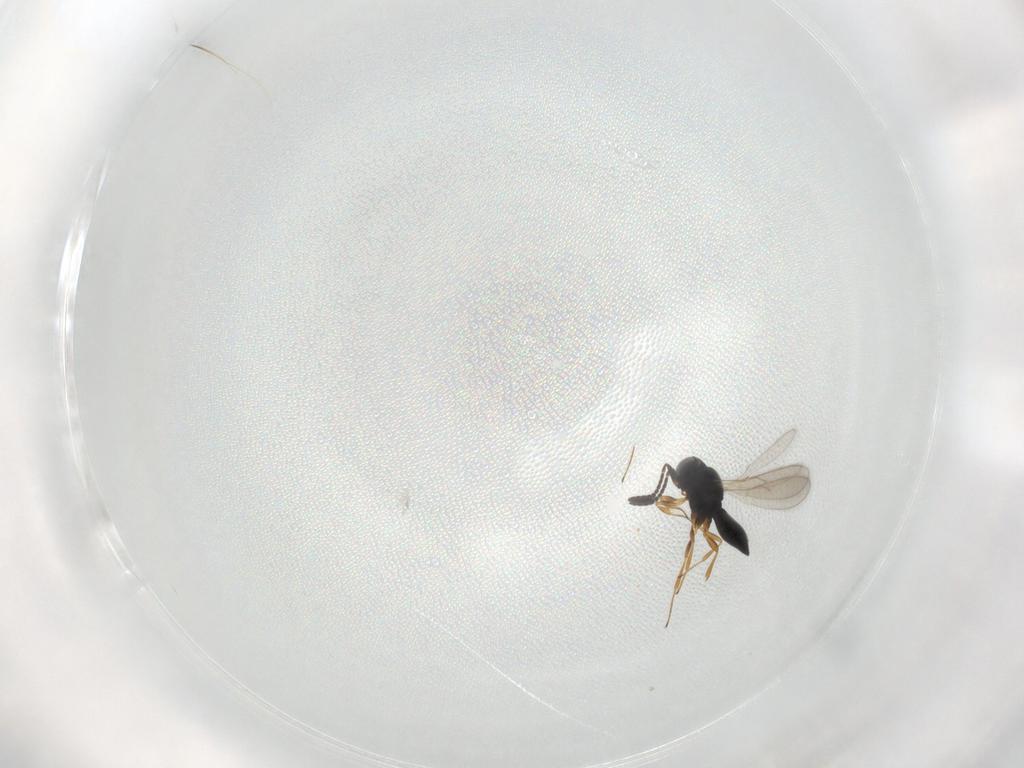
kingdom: Animalia
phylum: Arthropoda
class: Insecta
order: Hymenoptera
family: Scelionidae
